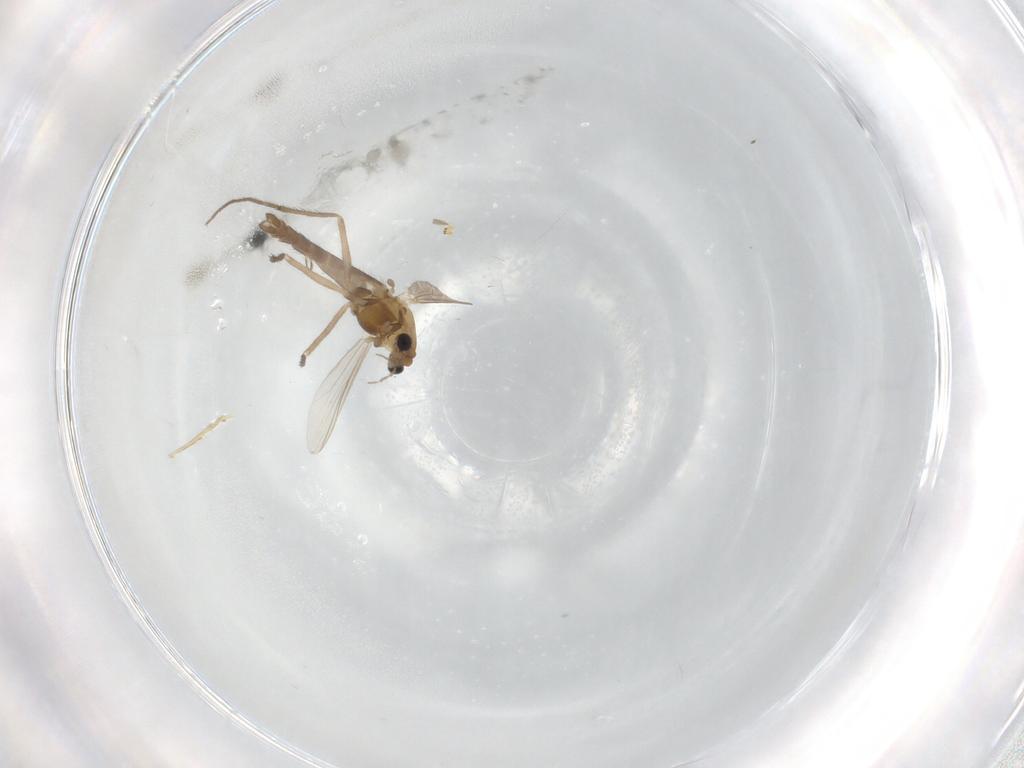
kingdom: Animalia
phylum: Arthropoda
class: Insecta
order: Diptera
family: Chironomidae
